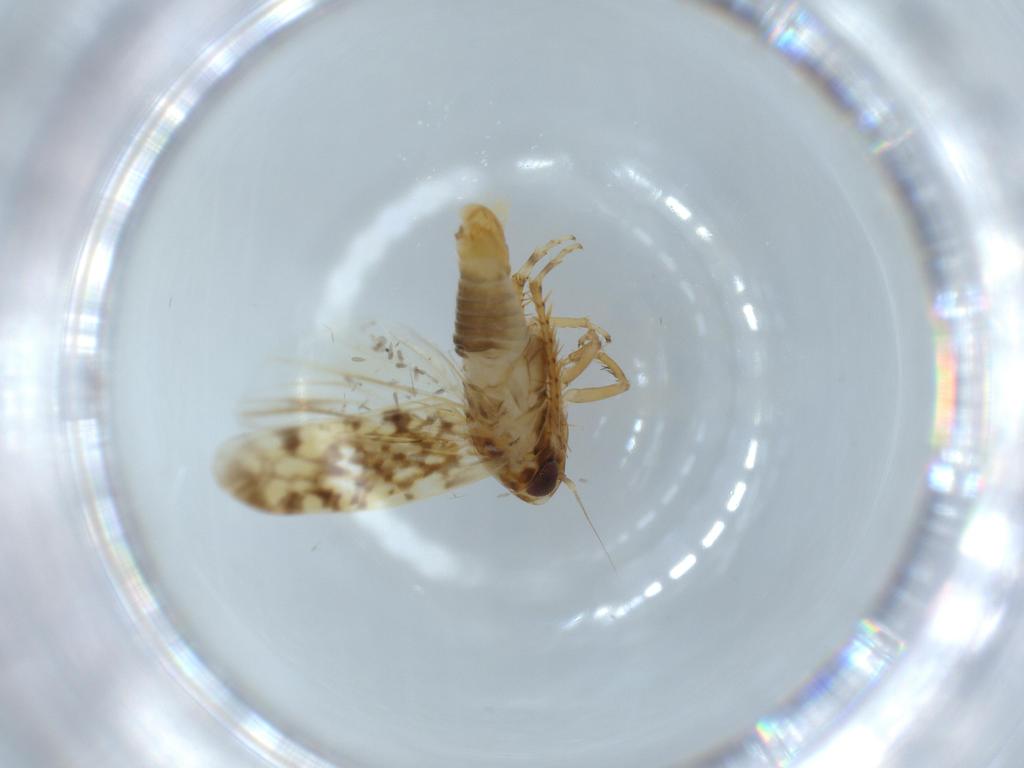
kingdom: Animalia
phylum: Arthropoda
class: Insecta
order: Hemiptera
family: Cicadellidae
